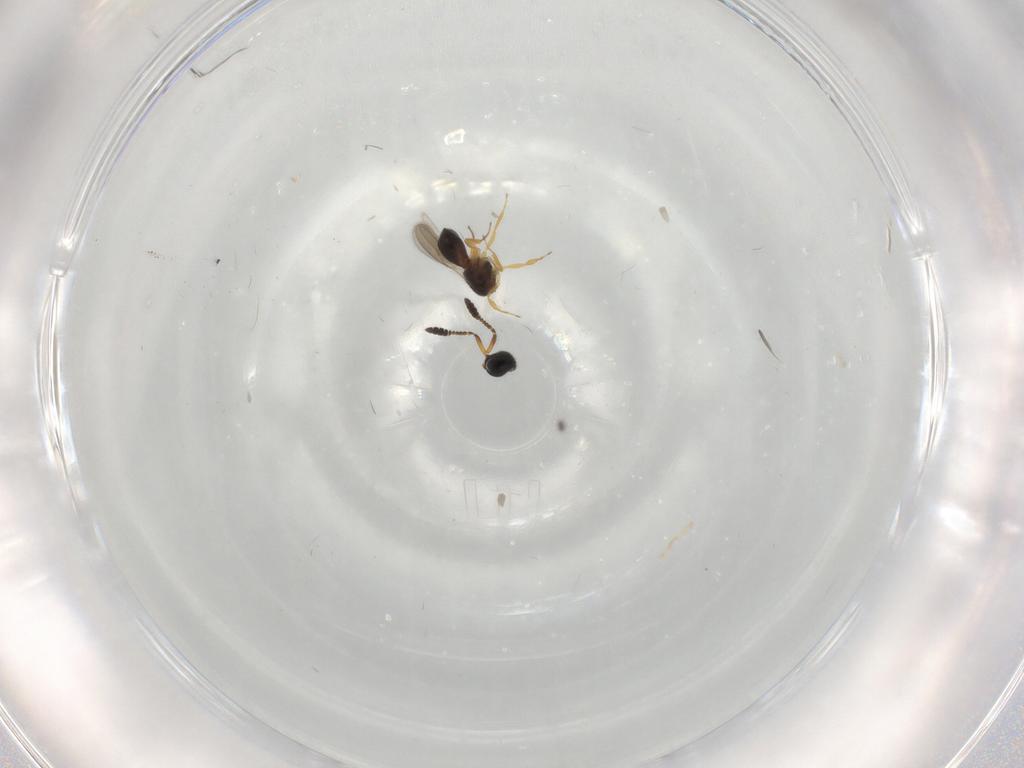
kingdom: Animalia
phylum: Arthropoda
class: Insecta
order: Hymenoptera
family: Scelionidae
